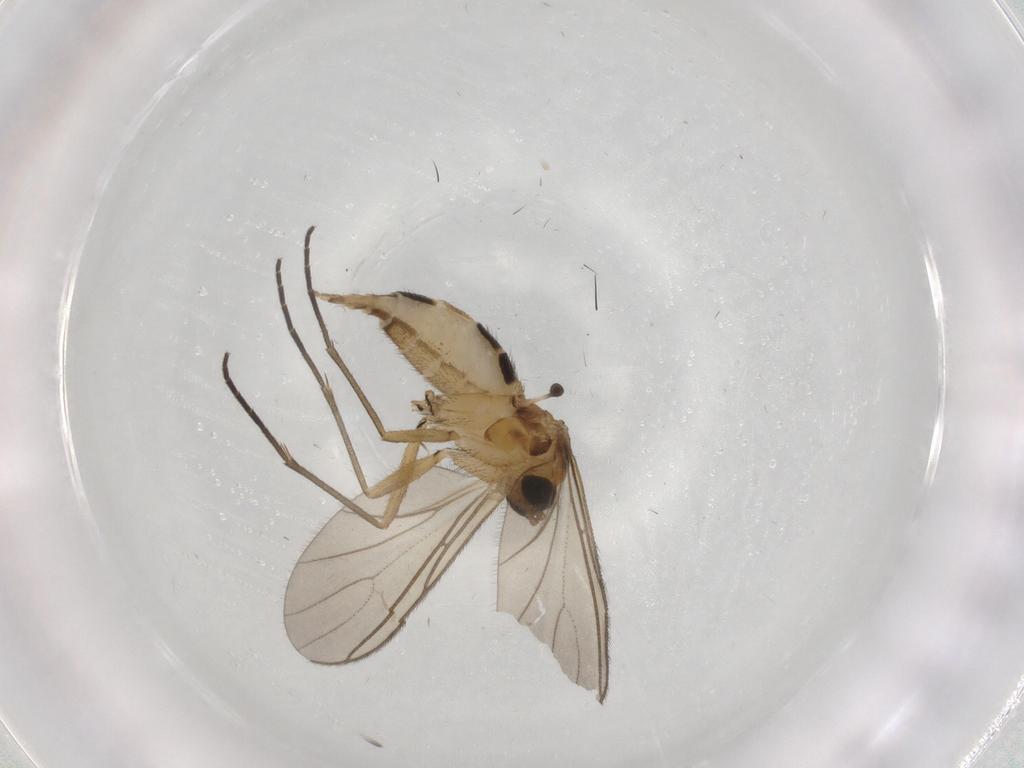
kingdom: Animalia
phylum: Arthropoda
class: Insecta
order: Diptera
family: Sciaridae
